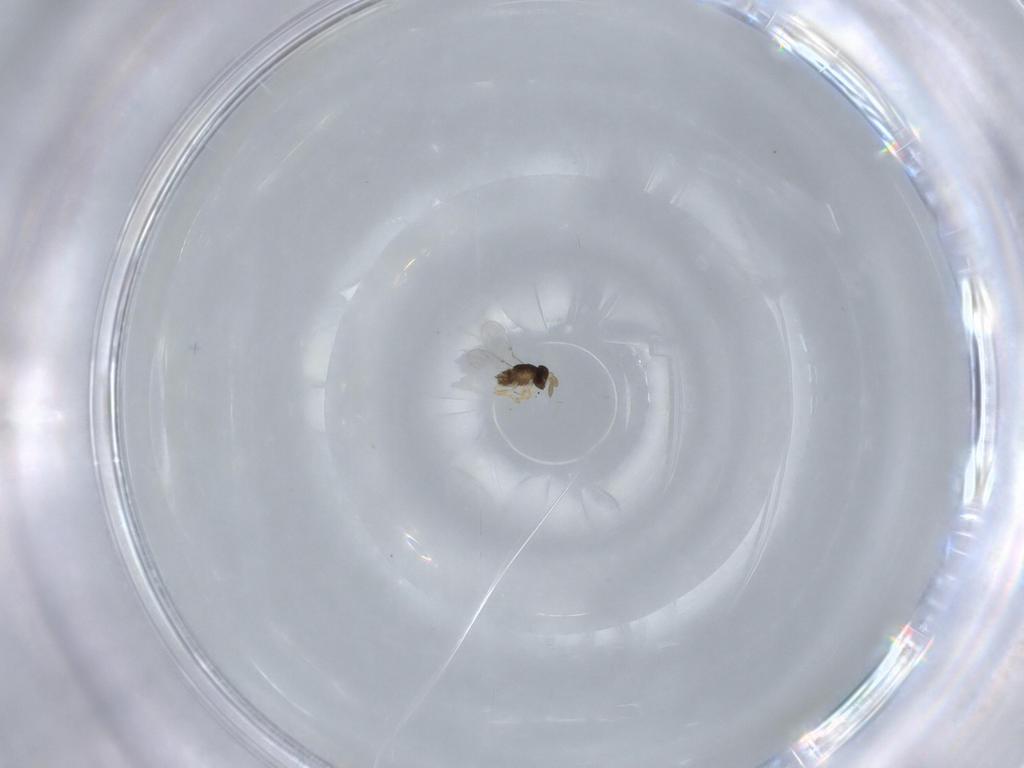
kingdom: Animalia
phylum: Arthropoda
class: Insecta
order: Hymenoptera
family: Encyrtidae
